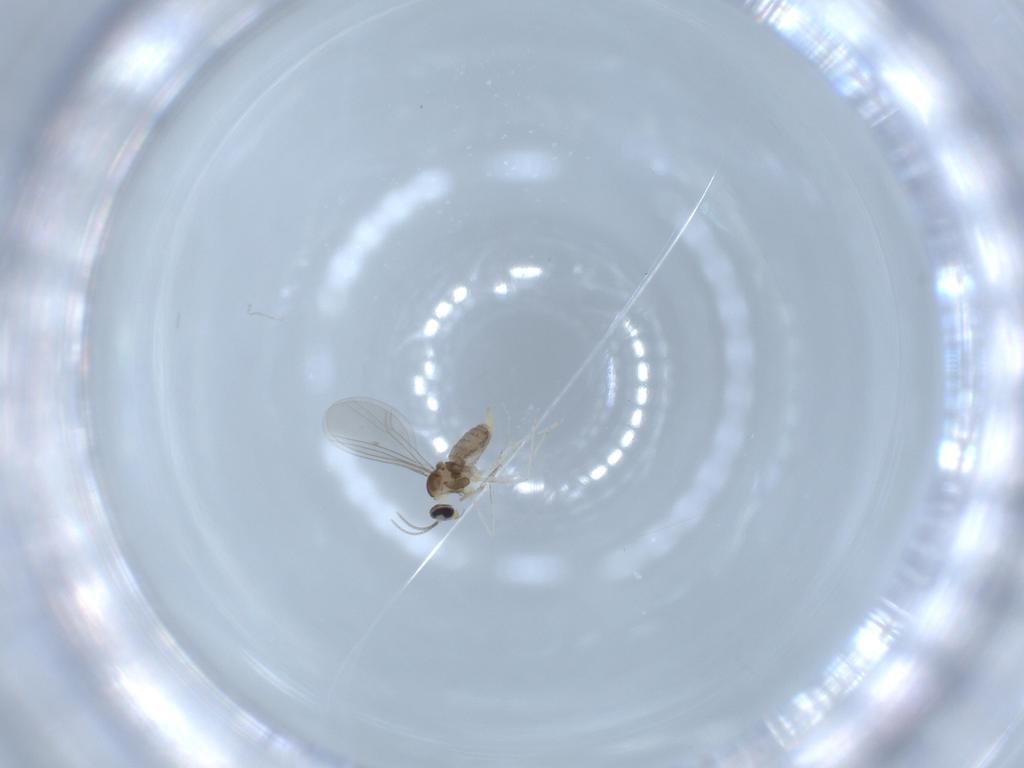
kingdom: Animalia
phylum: Arthropoda
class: Insecta
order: Diptera
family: Cecidomyiidae
